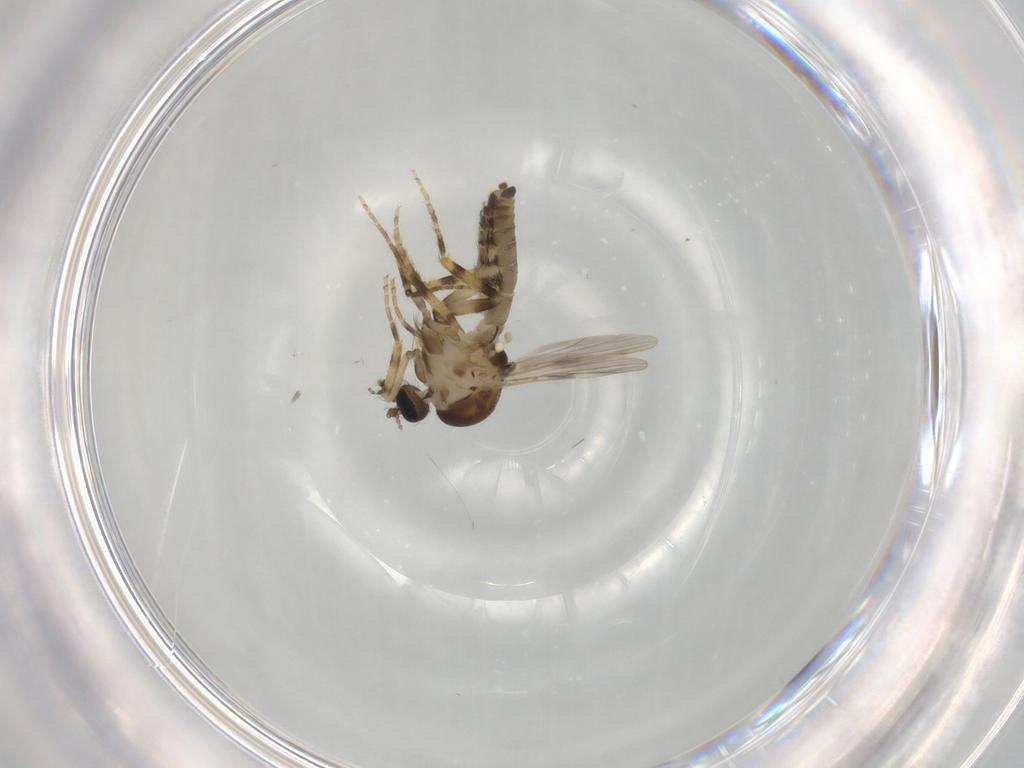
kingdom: Animalia
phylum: Arthropoda
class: Insecta
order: Diptera
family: Ceratopogonidae
